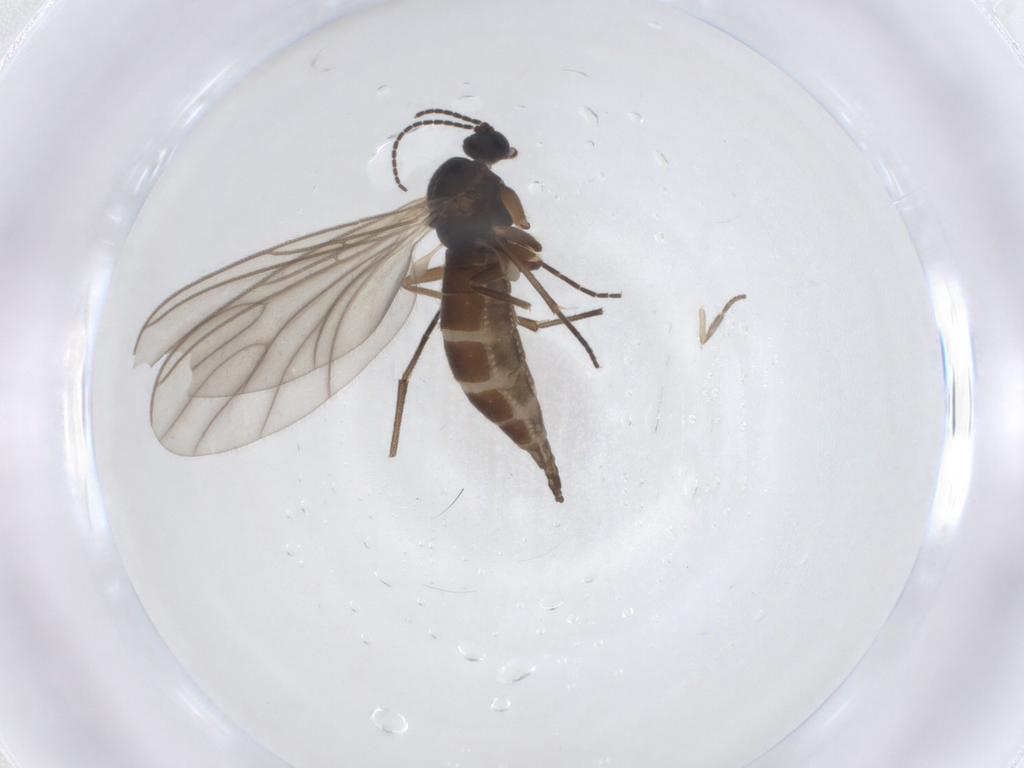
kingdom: Animalia
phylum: Arthropoda
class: Insecta
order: Diptera
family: Sciaridae
